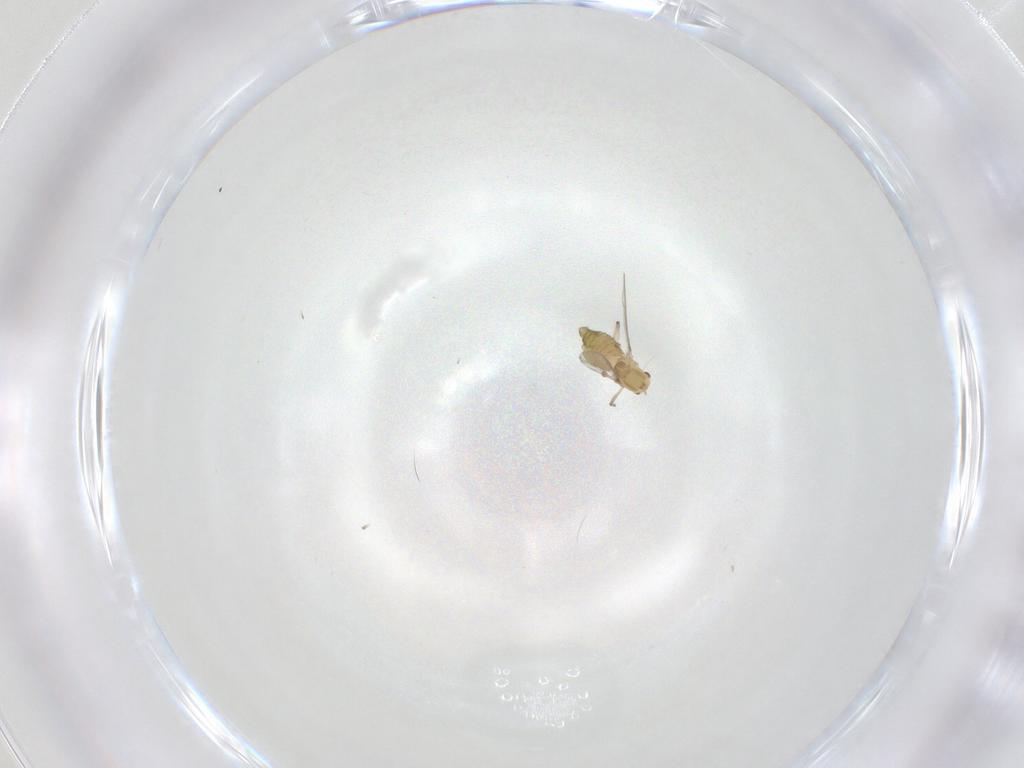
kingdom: Animalia
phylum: Arthropoda
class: Insecta
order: Diptera
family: Chironomidae
